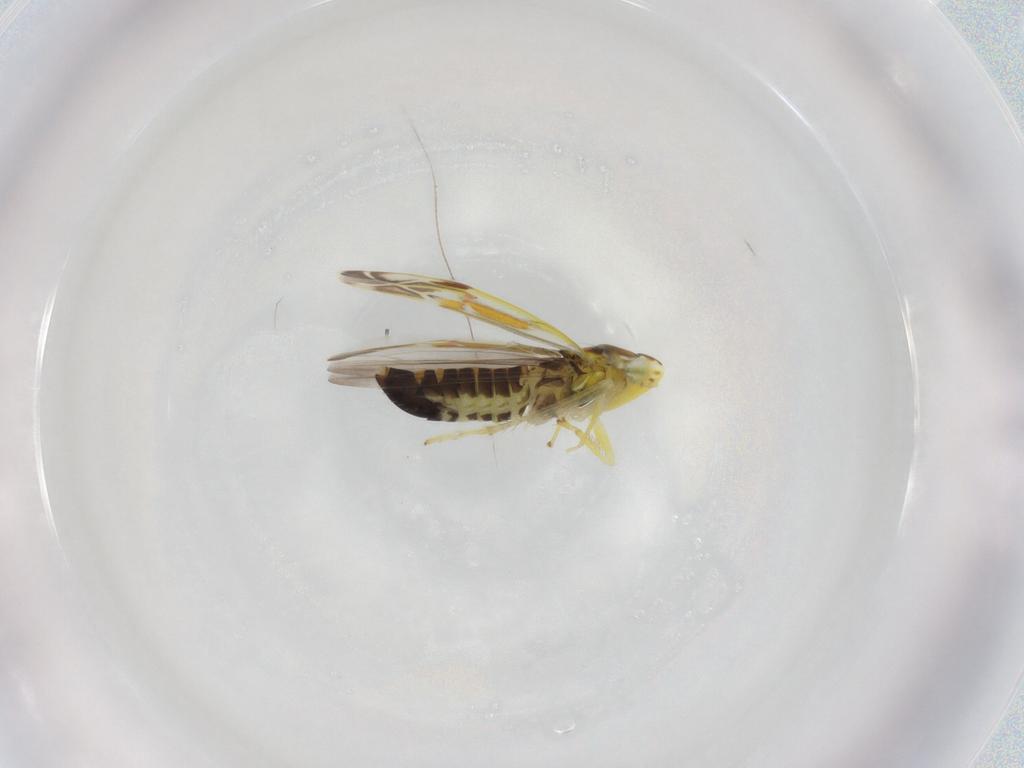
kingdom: Animalia
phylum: Arthropoda
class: Insecta
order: Hemiptera
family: Cicadellidae
